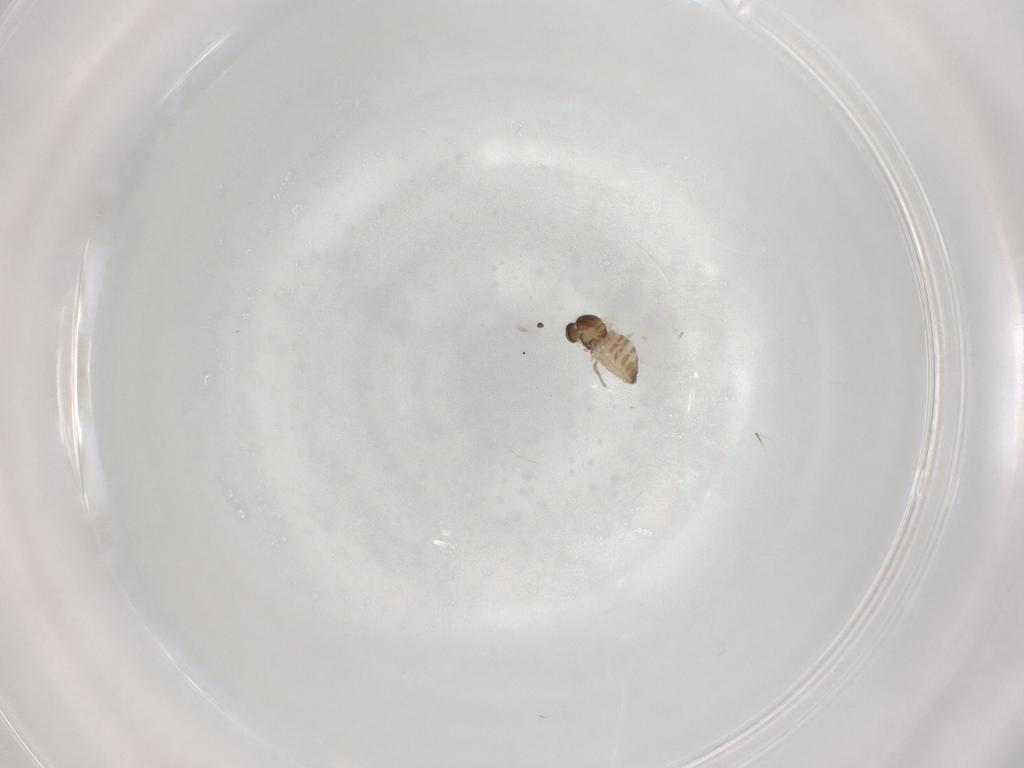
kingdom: Animalia
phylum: Arthropoda
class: Insecta
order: Diptera
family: Cecidomyiidae
